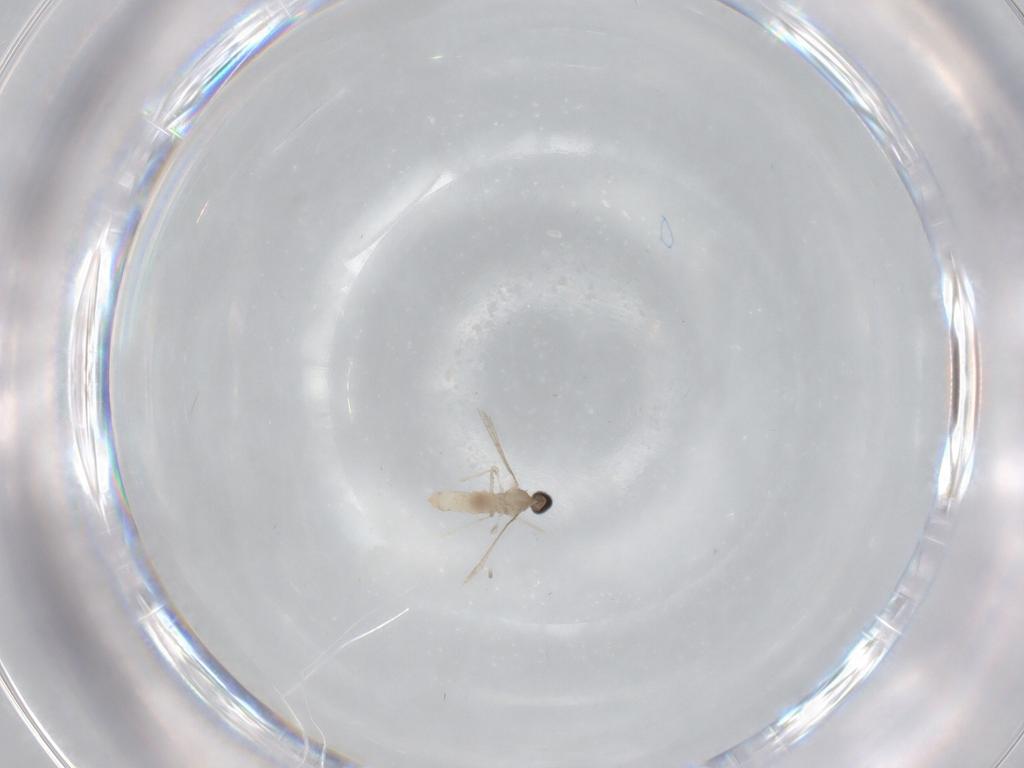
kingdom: Animalia
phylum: Arthropoda
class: Insecta
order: Diptera
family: Cecidomyiidae
